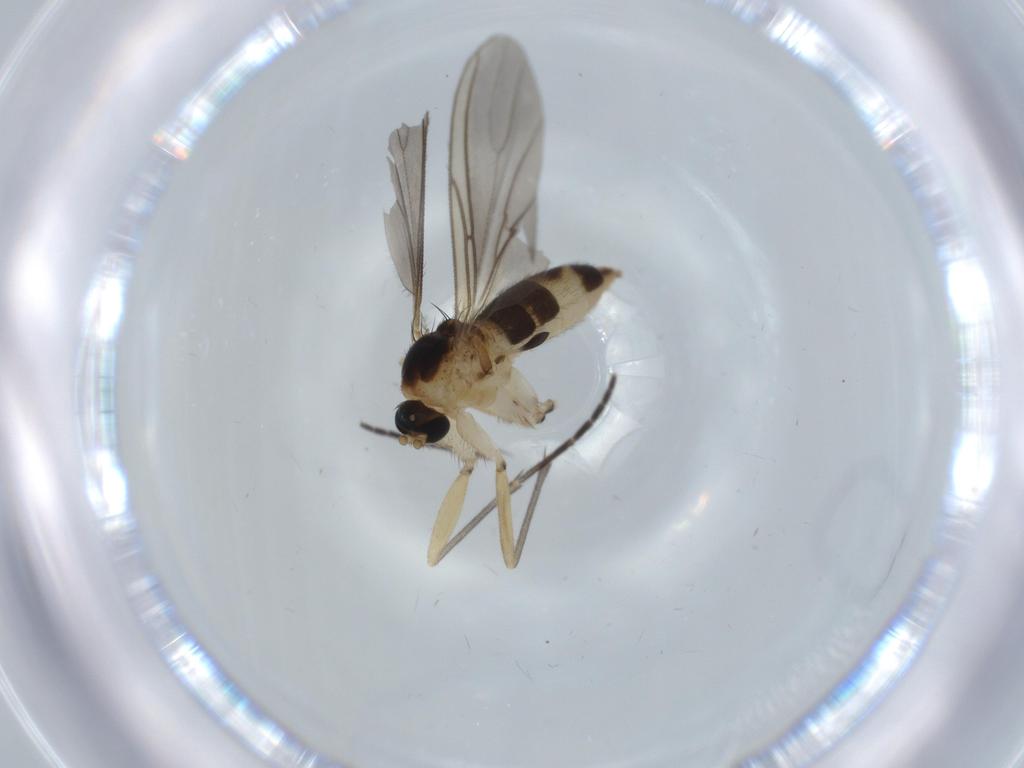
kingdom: Animalia
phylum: Arthropoda
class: Insecta
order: Diptera
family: Sciaridae
